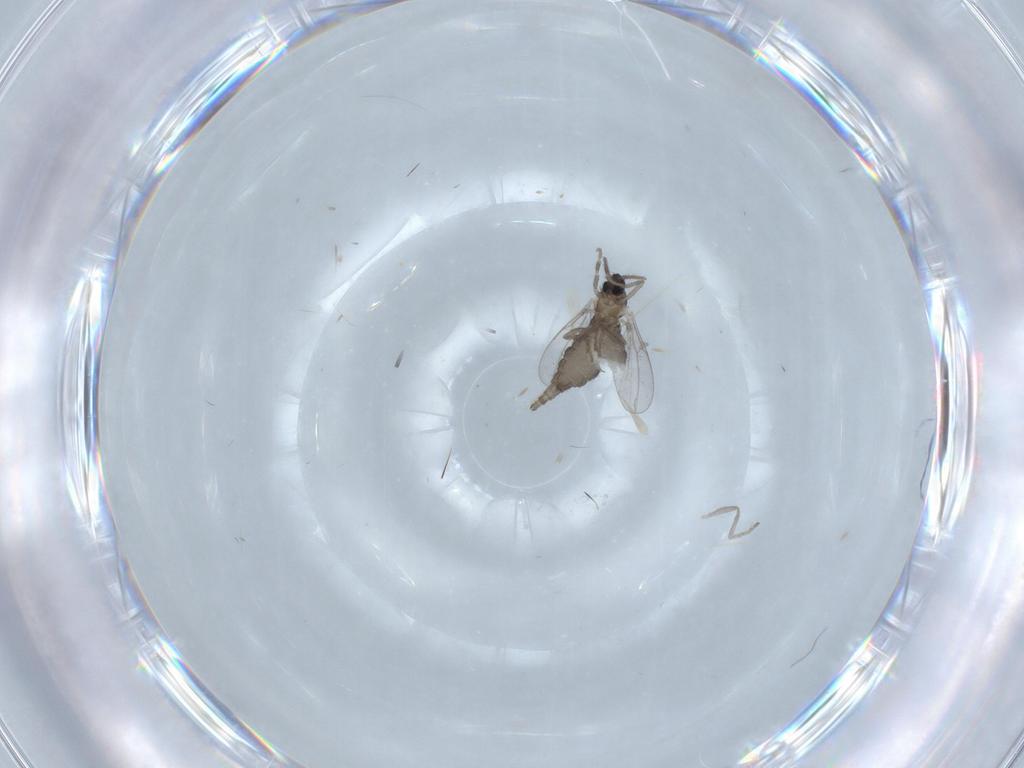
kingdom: Animalia
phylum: Arthropoda
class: Insecta
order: Diptera
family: Cecidomyiidae
